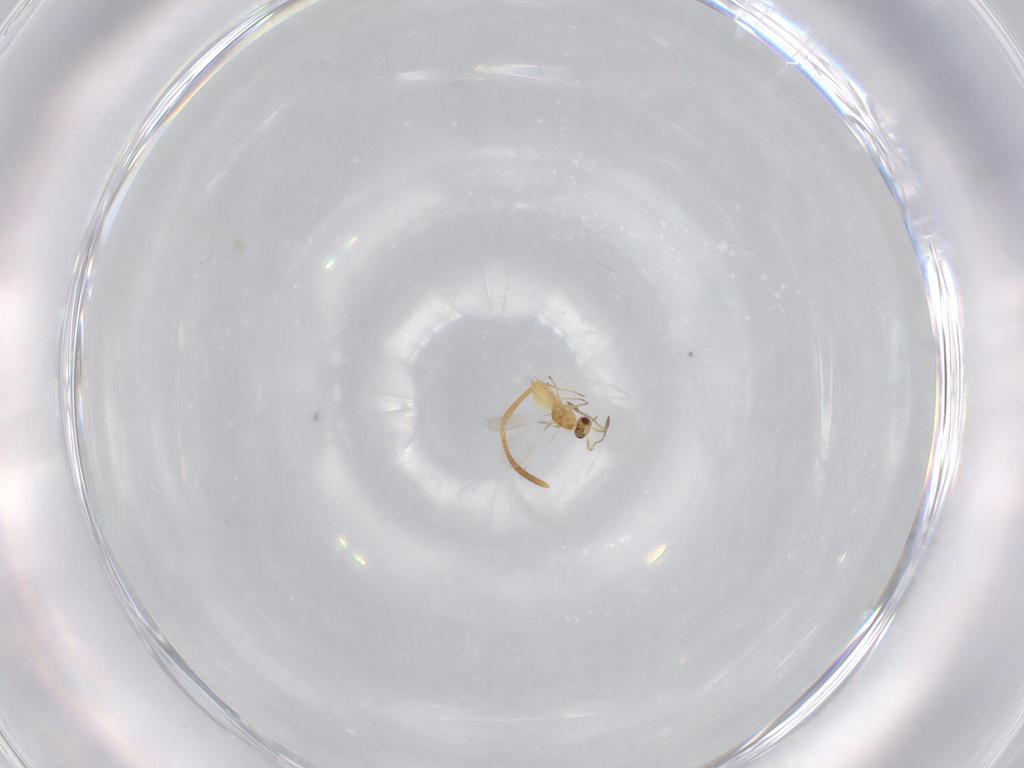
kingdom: Animalia
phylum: Arthropoda
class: Insecta
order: Hymenoptera
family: Mymaridae
